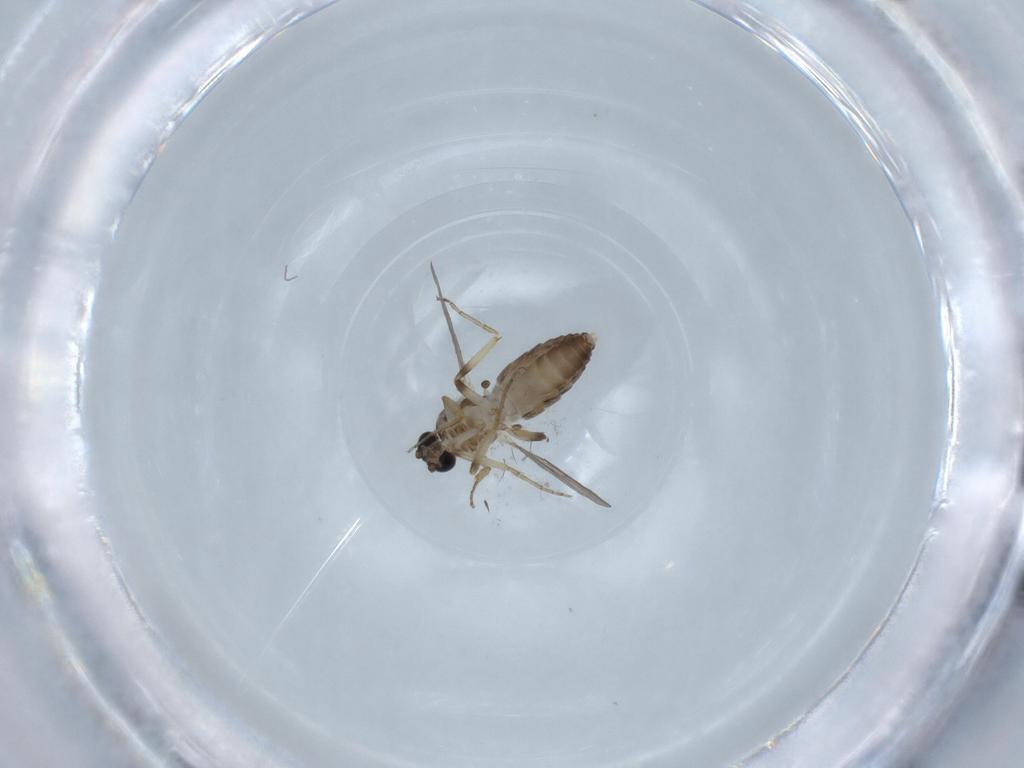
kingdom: Animalia
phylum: Arthropoda
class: Insecta
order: Diptera
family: Ceratopogonidae
